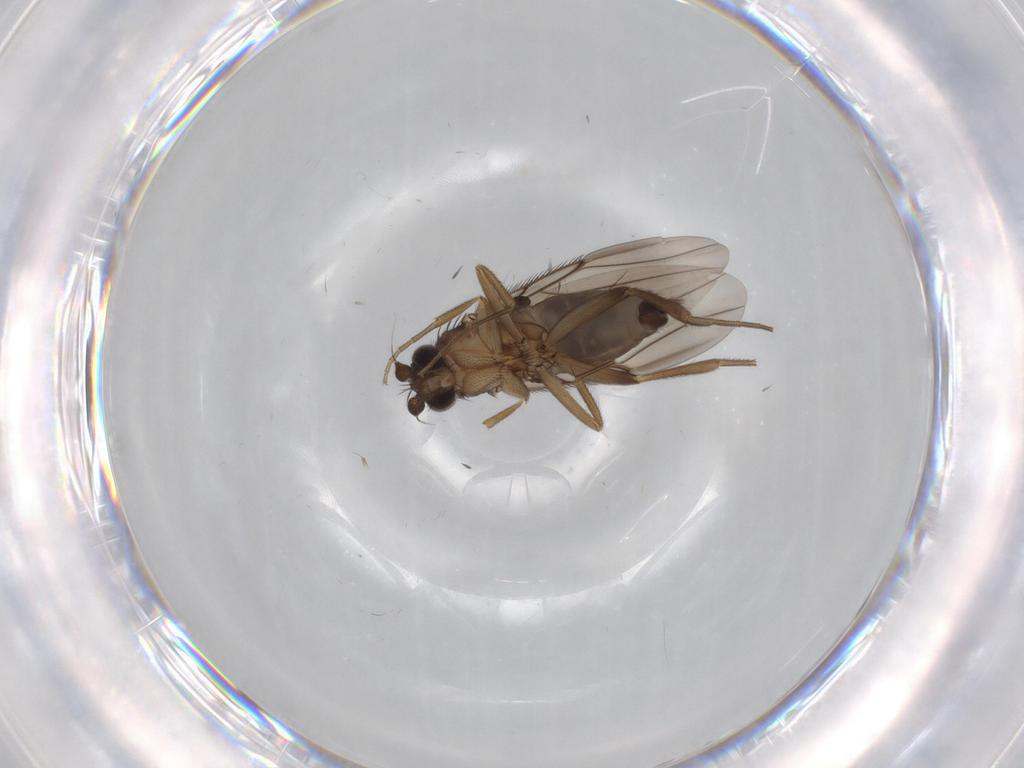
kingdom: Animalia
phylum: Arthropoda
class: Insecta
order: Diptera
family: Phoridae
